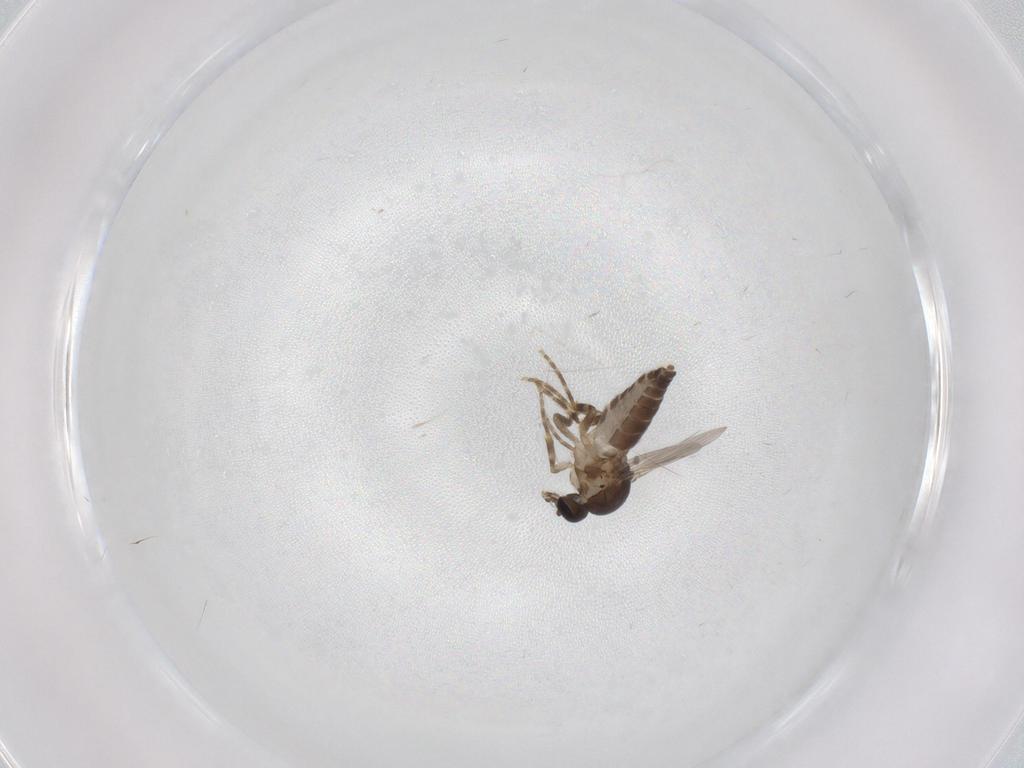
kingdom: Animalia
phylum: Arthropoda
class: Insecta
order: Diptera
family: Ceratopogonidae
